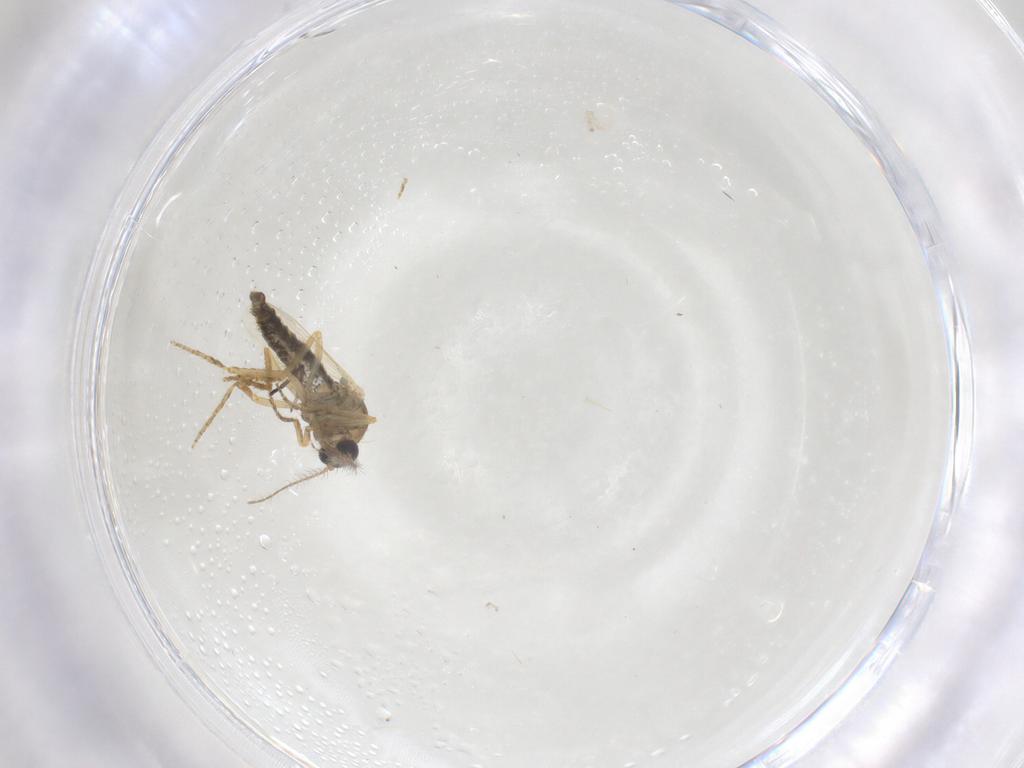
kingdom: Animalia
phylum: Arthropoda
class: Insecta
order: Diptera
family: Ceratopogonidae
